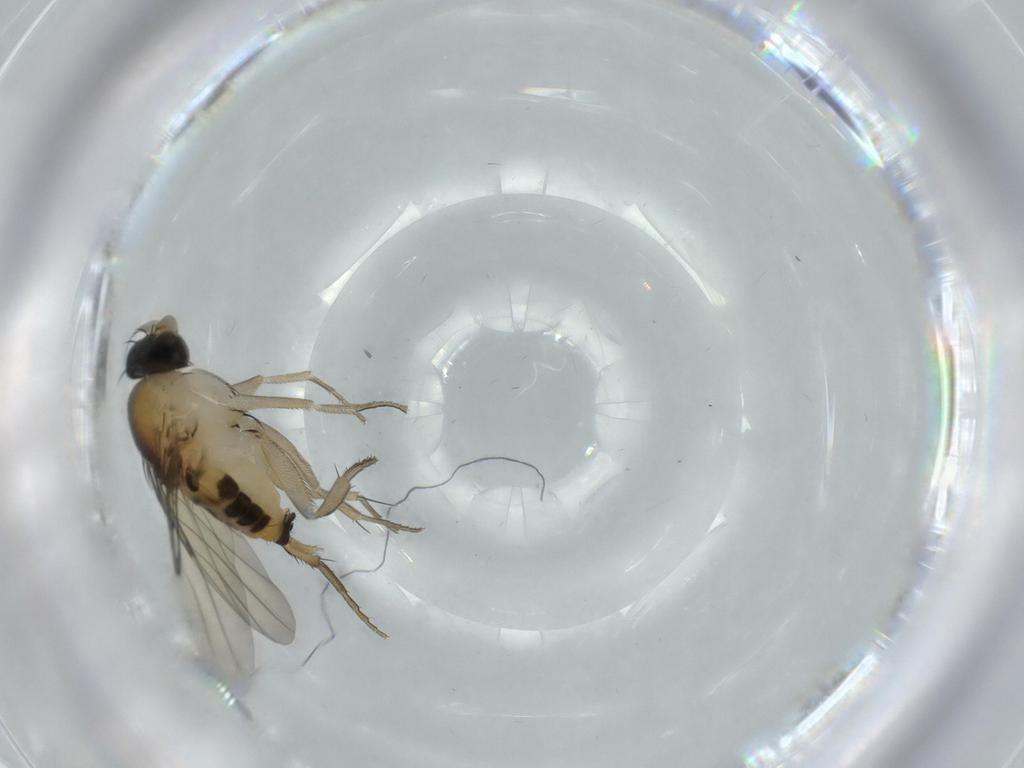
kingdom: Animalia
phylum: Arthropoda
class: Insecta
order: Diptera
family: Phoridae
